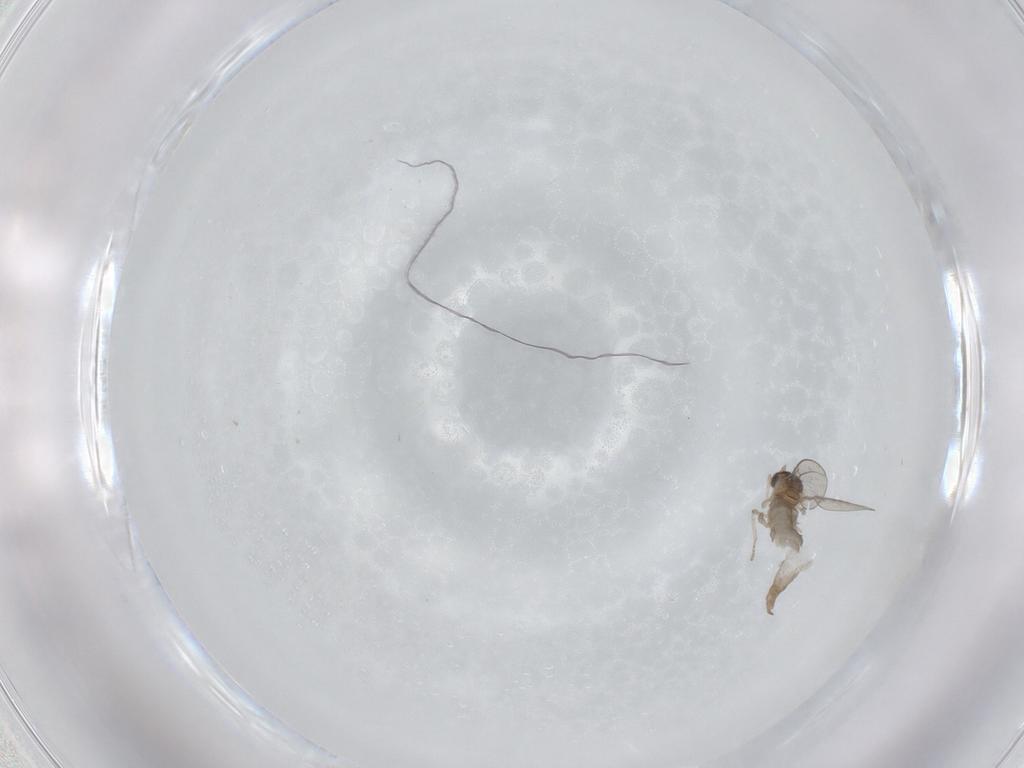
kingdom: Animalia
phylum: Arthropoda
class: Insecta
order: Diptera
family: Cecidomyiidae
